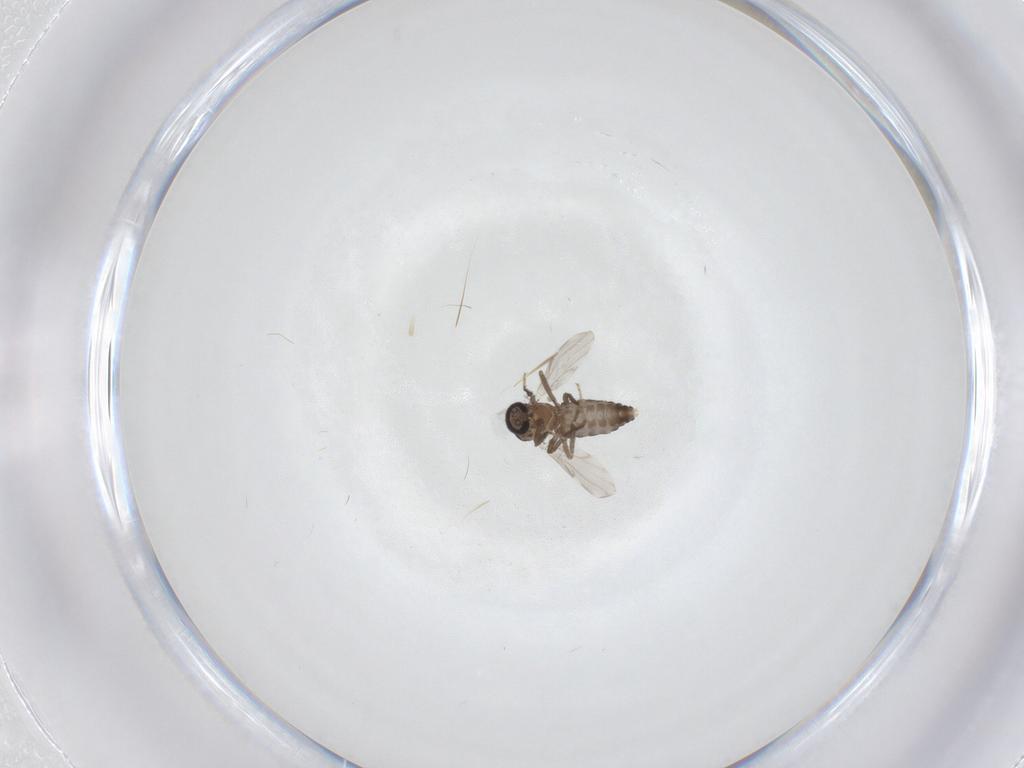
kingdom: Animalia
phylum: Arthropoda
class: Insecta
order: Diptera
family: Ceratopogonidae
